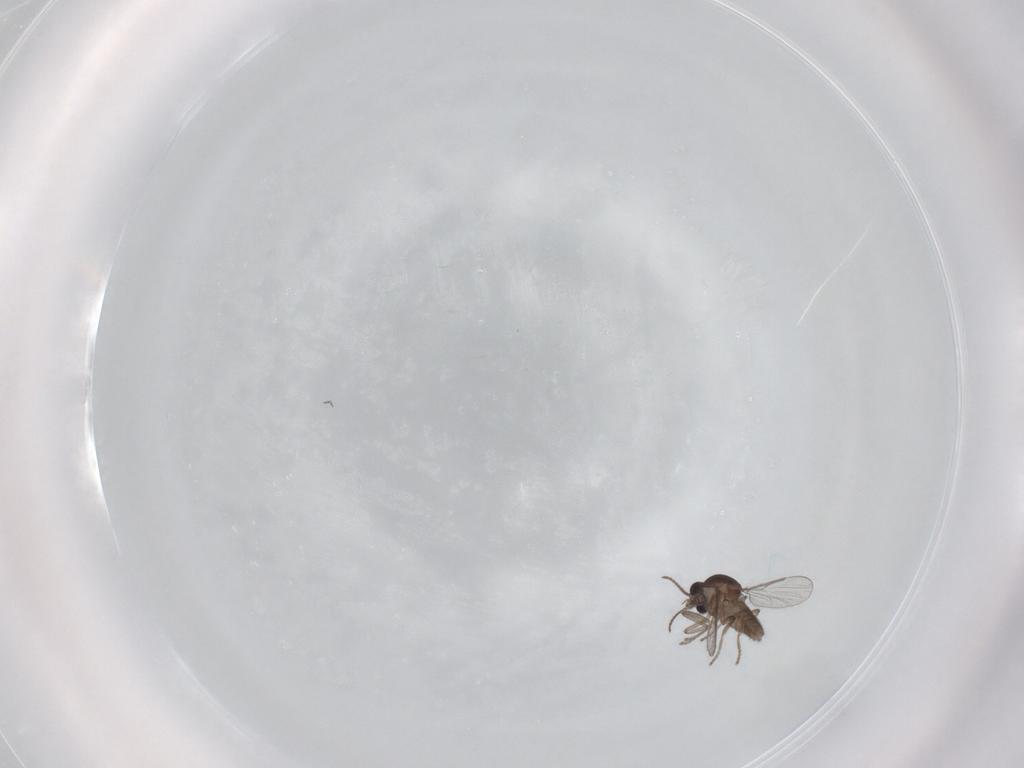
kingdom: Animalia
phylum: Arthropoda
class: Insecta
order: Diptera
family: Ceratopogonidae
